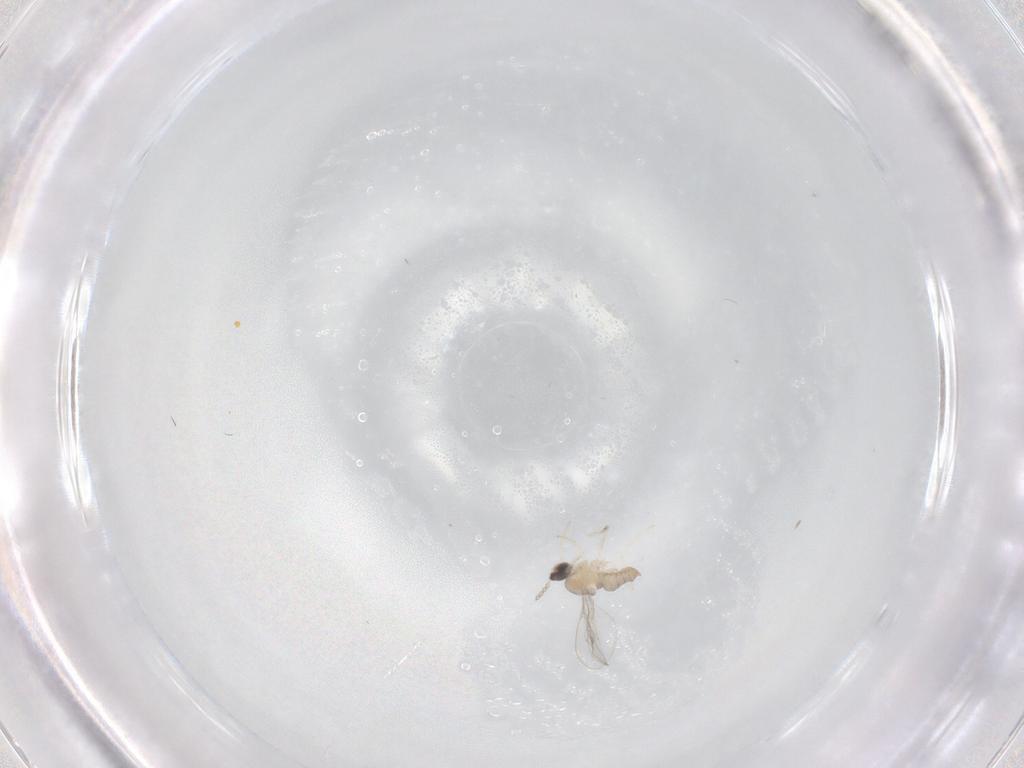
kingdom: Animalia
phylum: Arthropoda
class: Insecta
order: Diptera
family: Cecidomyiidae
